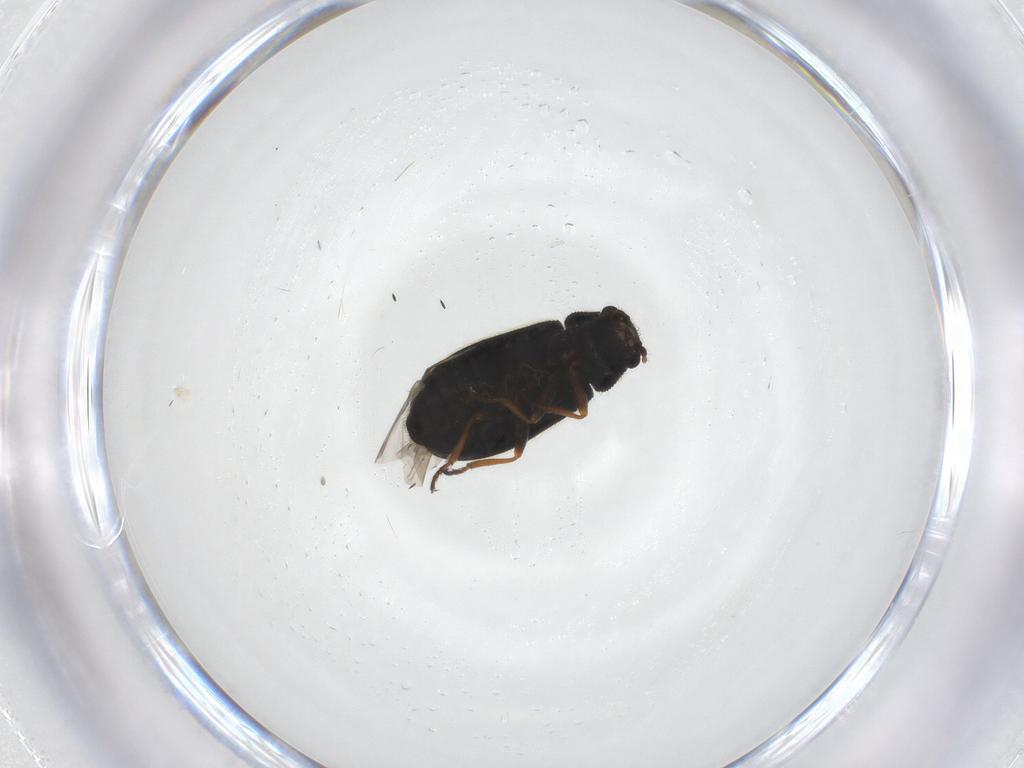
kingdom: Animalia
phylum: Arthropoda
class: Insecta
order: Coleoptera
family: Melyridae
